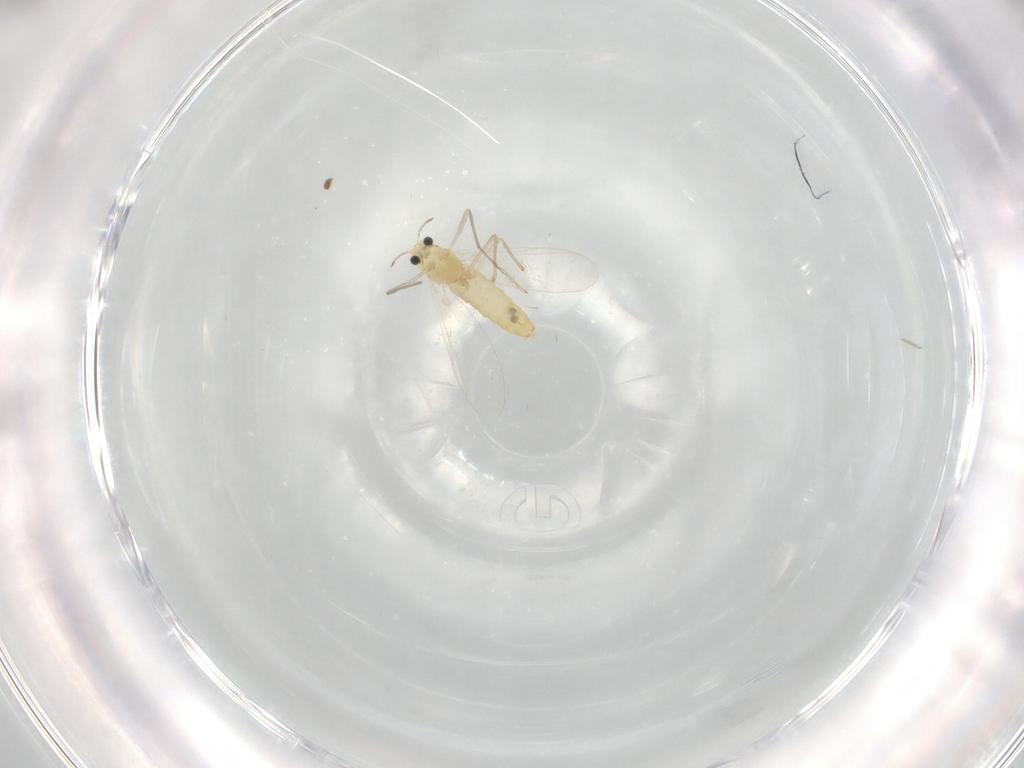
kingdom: Animalia
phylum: Arthropoda
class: Insecta
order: Diptera
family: Chironomidae
